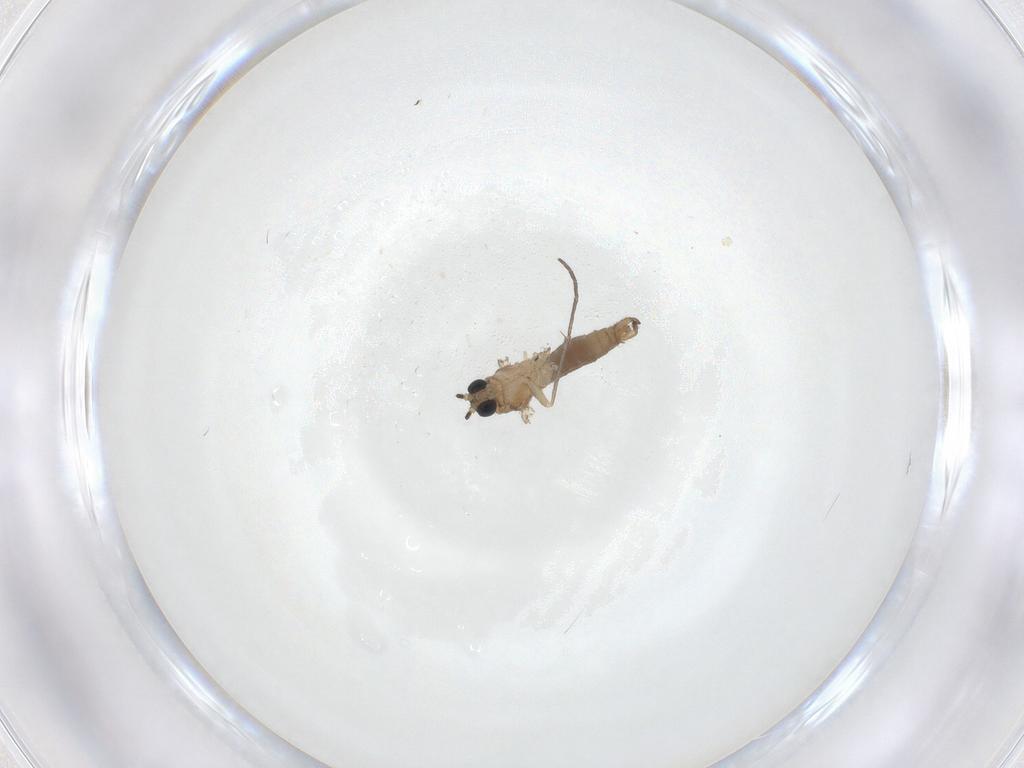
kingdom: Animalia
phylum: Arthropoda
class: Insecta
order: Diptera
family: Sciaridae
